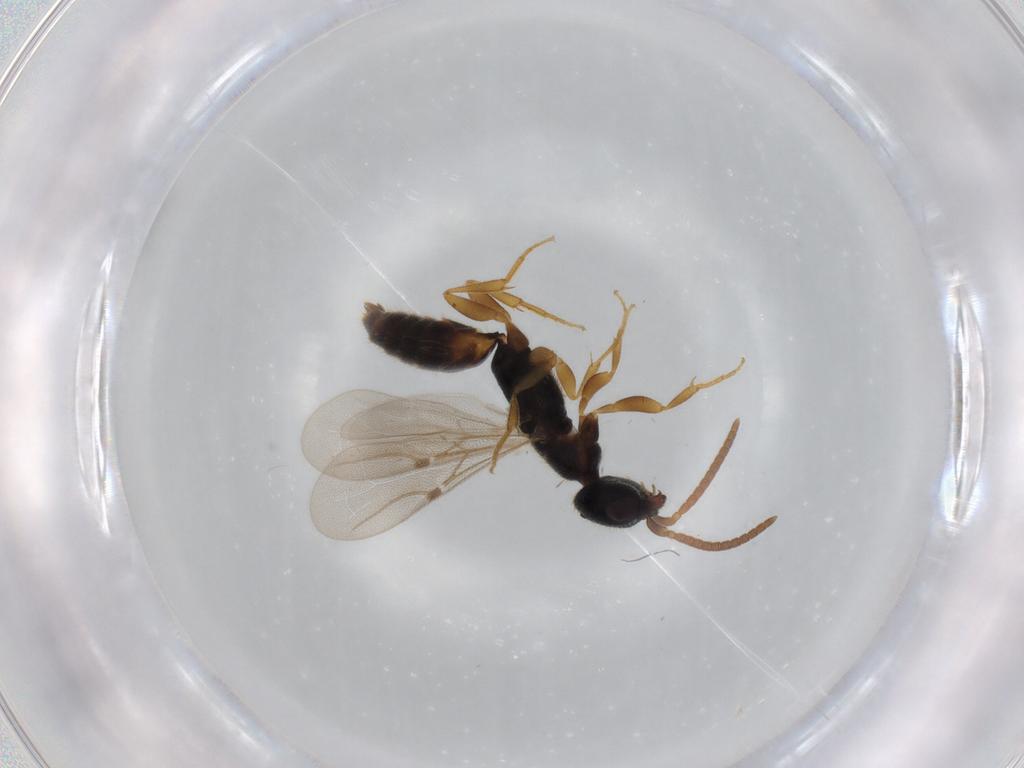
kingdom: Animalia
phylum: Arthropoda
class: Insecta
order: Hymenoptera
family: Bethylidae
